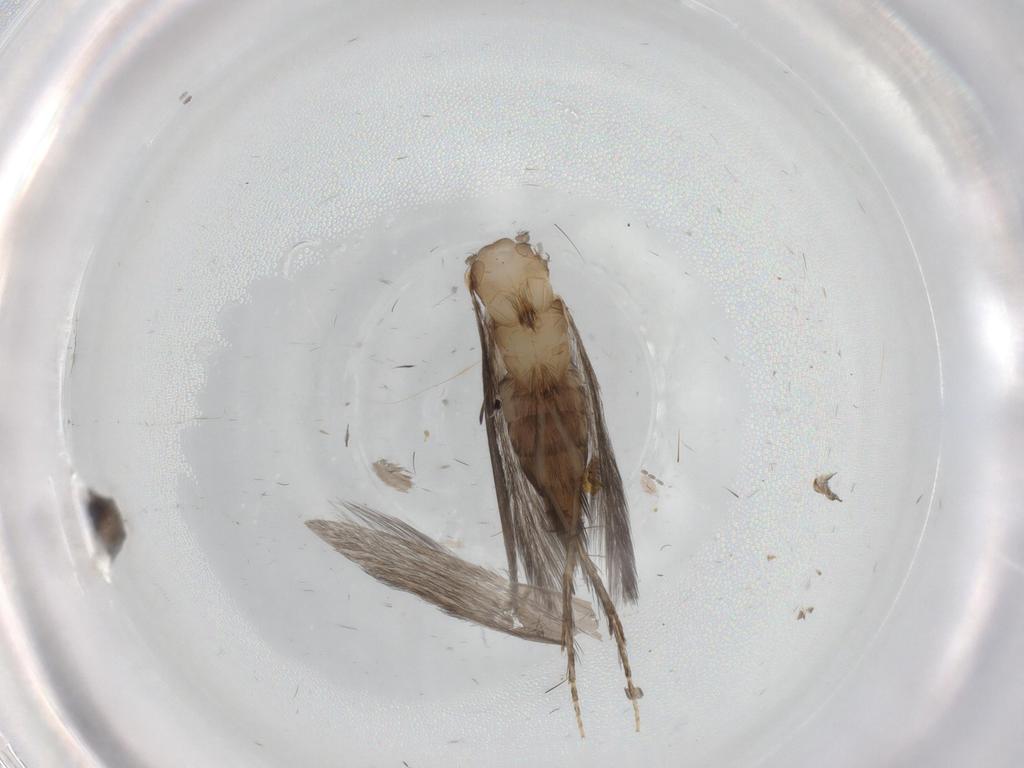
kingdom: Animalia
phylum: Arthropoda
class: Insecta
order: Trichoptera
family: Hydroptilidae
